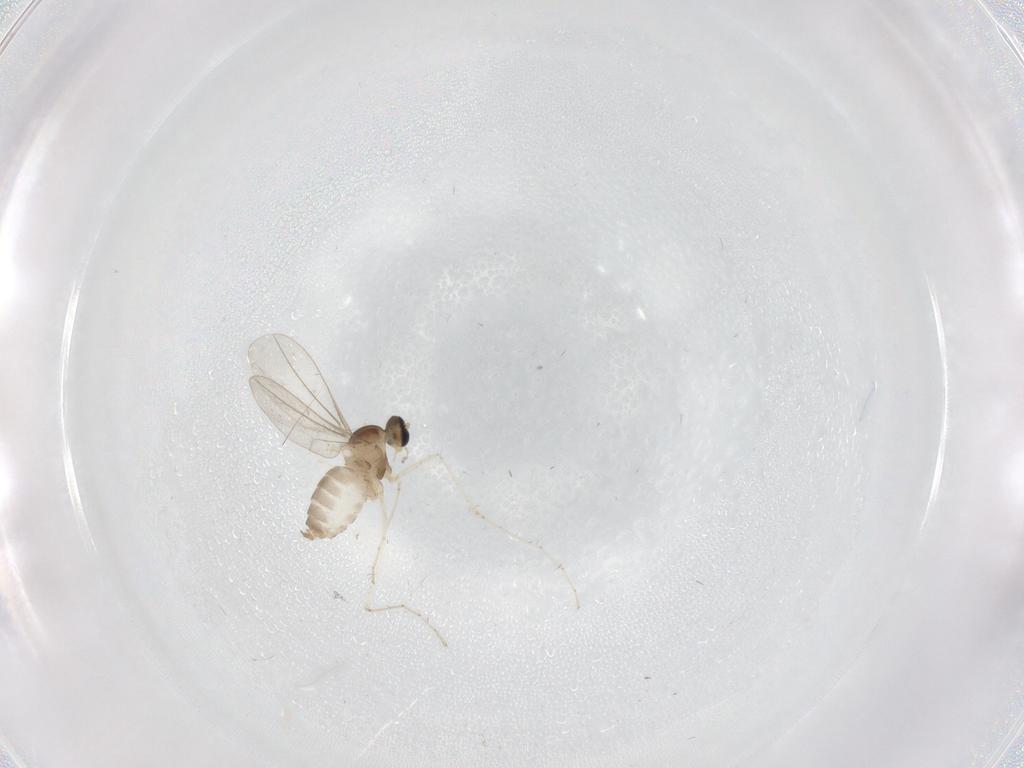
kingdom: Animalia
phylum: Arthropoda
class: Insecta
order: Diptera
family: Cecidomyiidae
